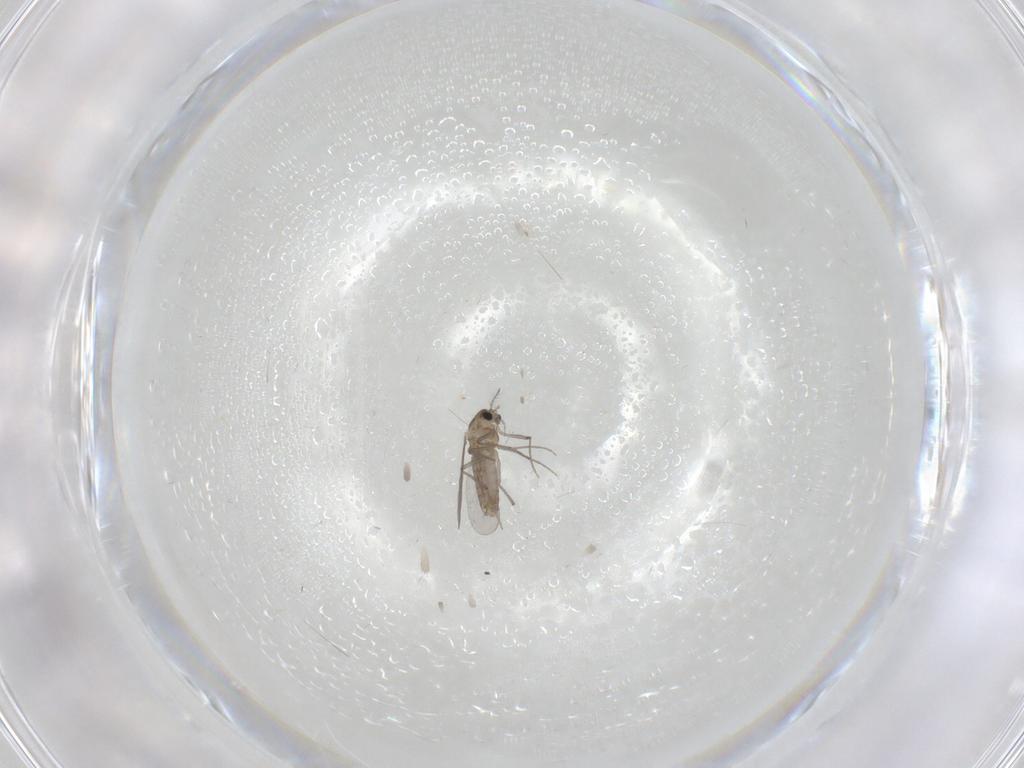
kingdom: Animalia
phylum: Arthropoda
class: Insecta
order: Diptera
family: Chironomidae
